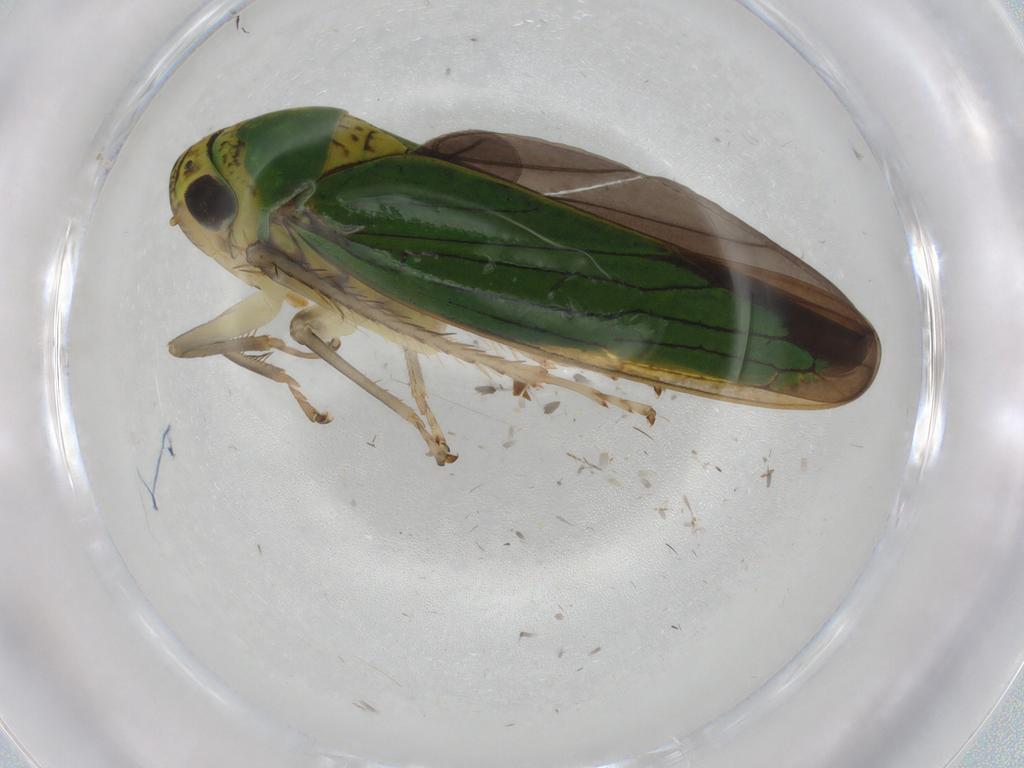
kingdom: Animalia
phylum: Arthropoda
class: Insecta
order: Hemiptera
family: Cicadellidae
